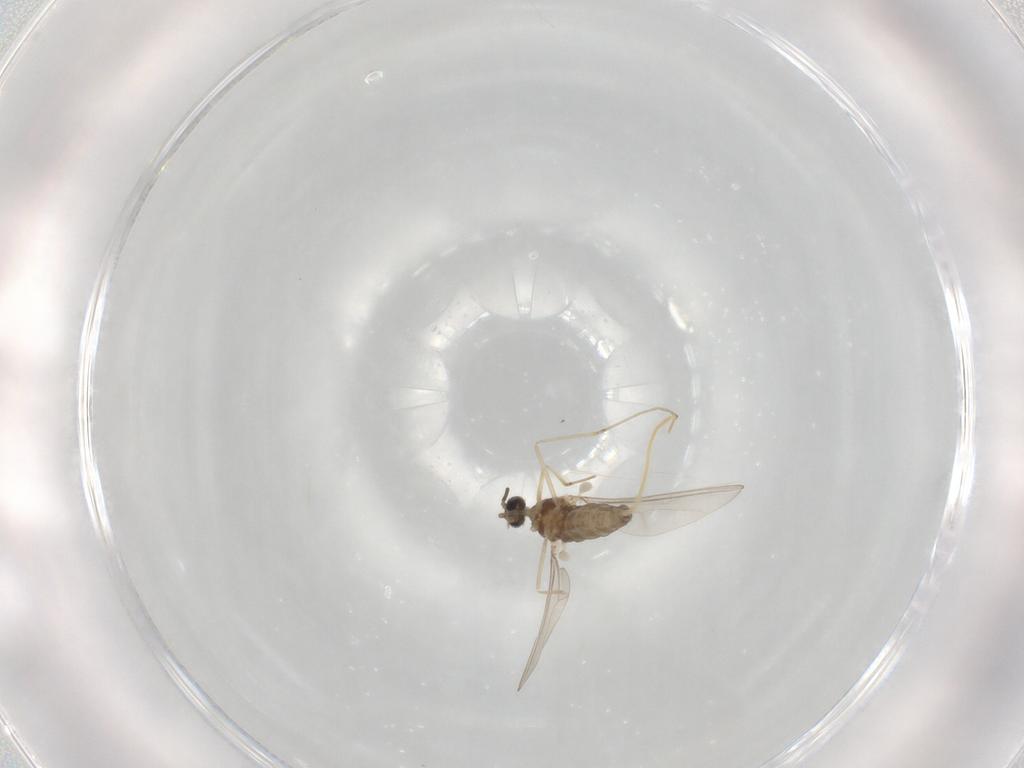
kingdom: Animalia
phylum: Arthropoda
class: Insecta
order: Diptera
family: Cecidomyiidae
